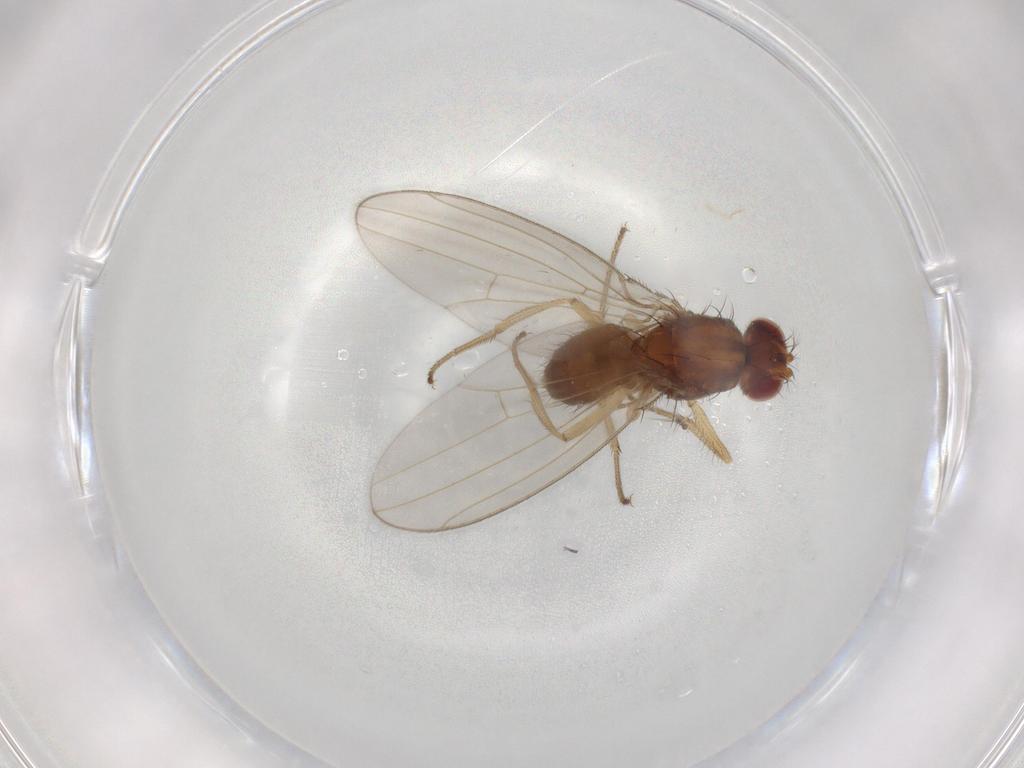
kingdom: Animalia
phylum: Arthropoda
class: Insecta
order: Diptera
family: Drosophilidae
